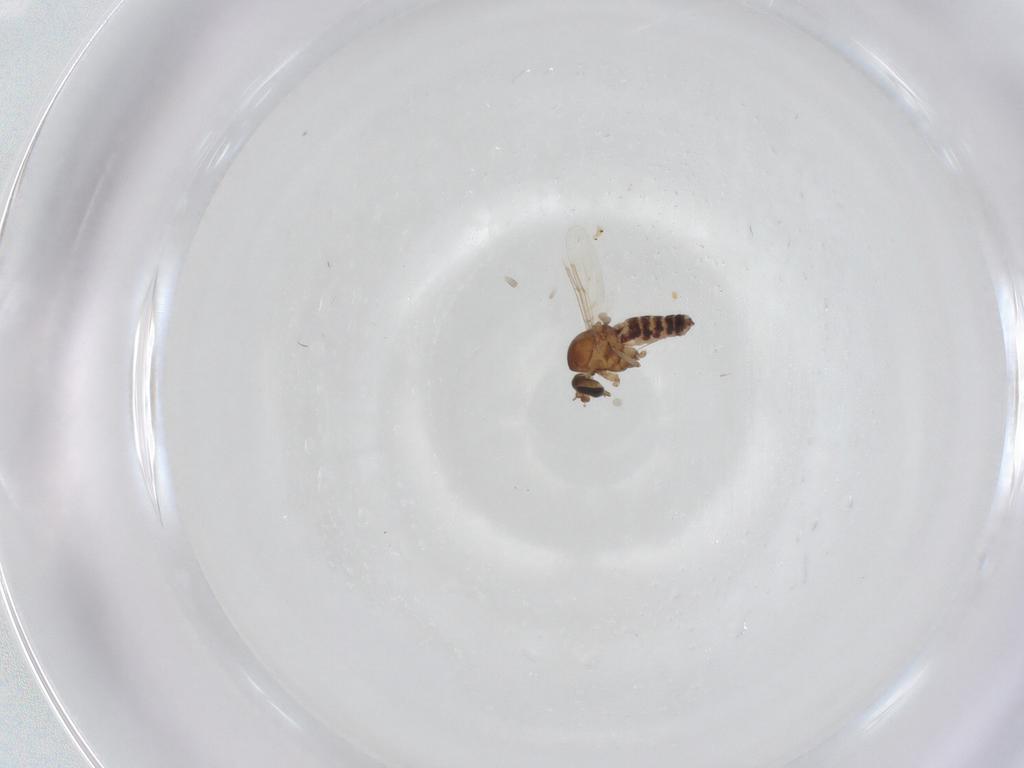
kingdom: Animalia
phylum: Arthropoda
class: Insecta
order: Diptera
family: Ceratopogonidae
